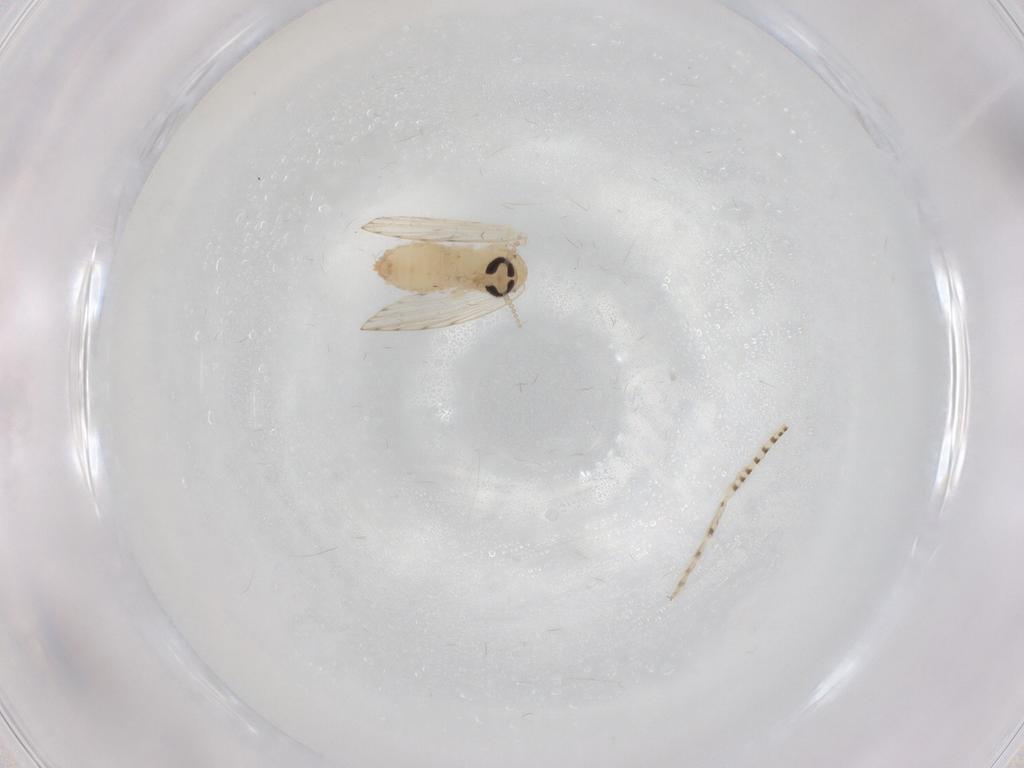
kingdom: Animalia
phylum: Arthropoda
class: Insecta
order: Diptera
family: Psychodidae
